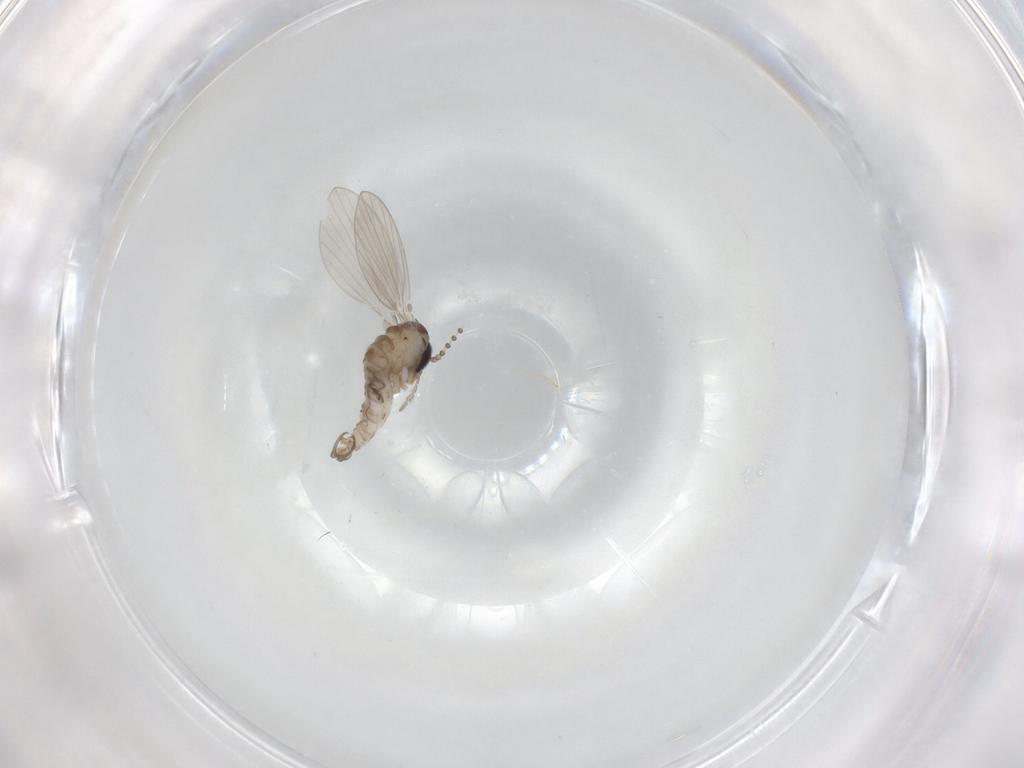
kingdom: Animalia
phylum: Arthropoda
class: Insecta
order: Diptera
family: Psychodidae
